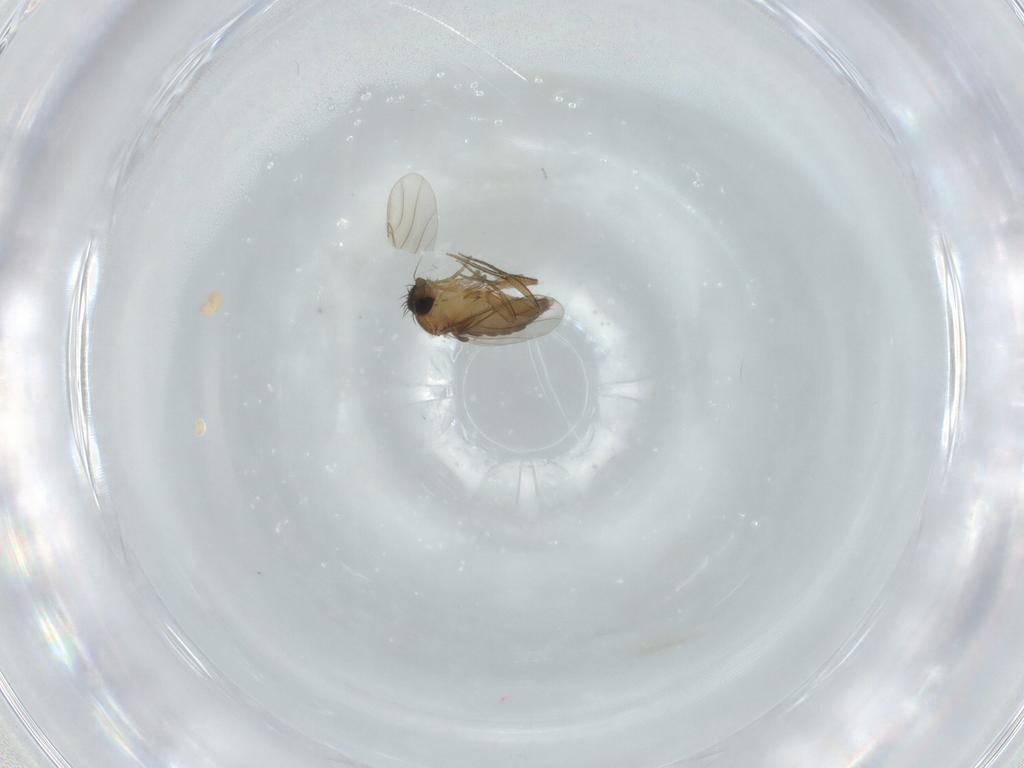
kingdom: Animalia
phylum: Arthropoda
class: Insecta
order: Diptera
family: Phoridae
